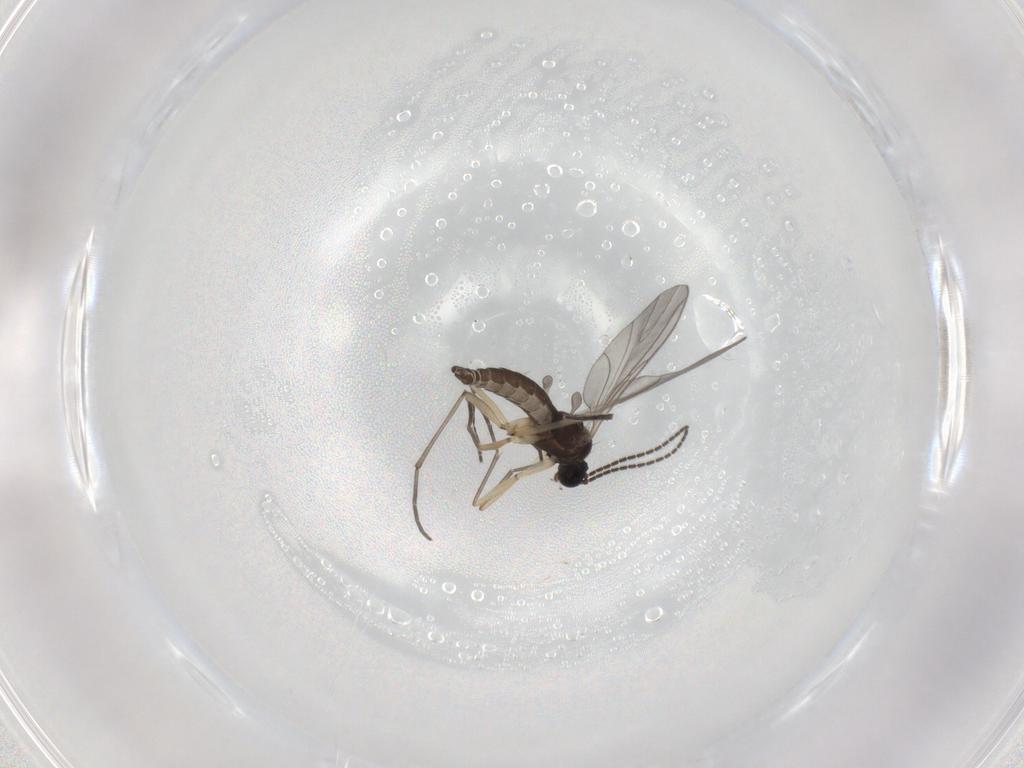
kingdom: Animalia
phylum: Arthropoda
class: Insecta
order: Diptera
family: Sciaridae
